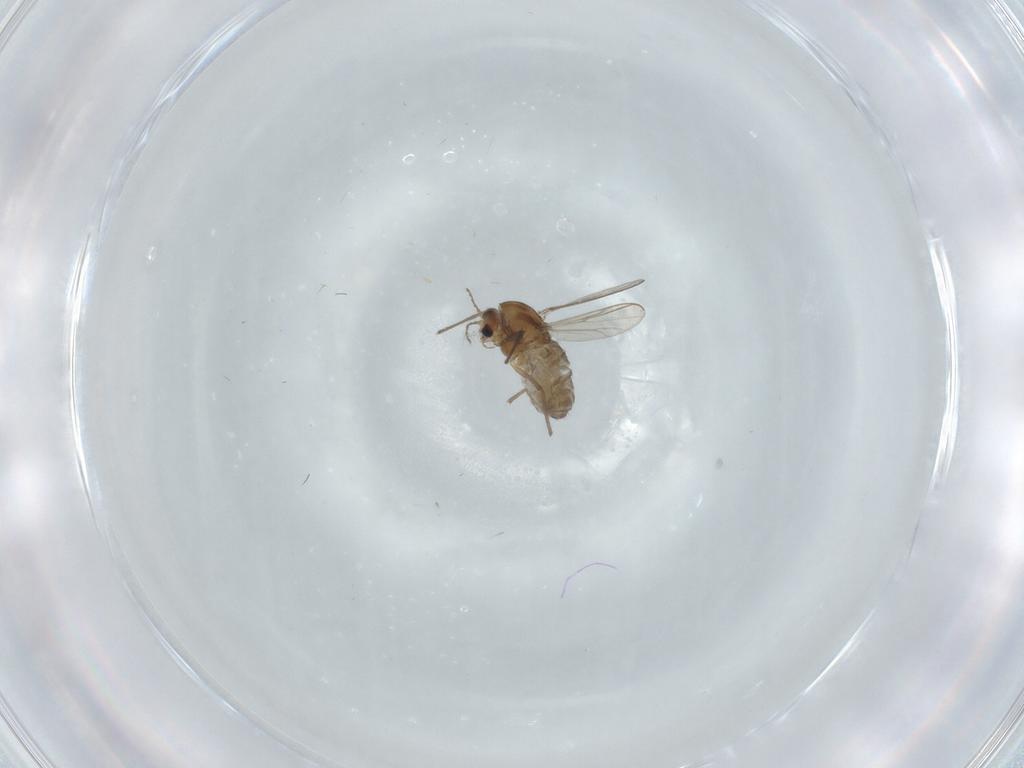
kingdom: Animalia
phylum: Arthropoda
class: Insecta
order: Diptera
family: Chironomidae
